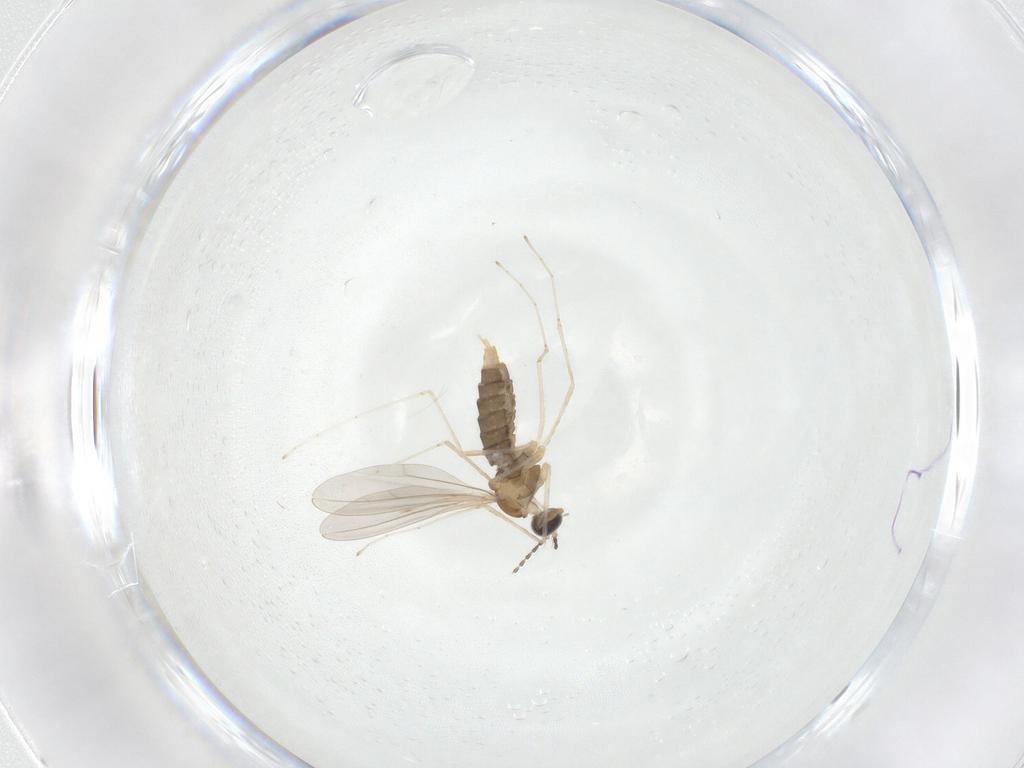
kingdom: Animalia
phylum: Arthropoda
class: Insecta
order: Diptera
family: Cecidomyiidae
